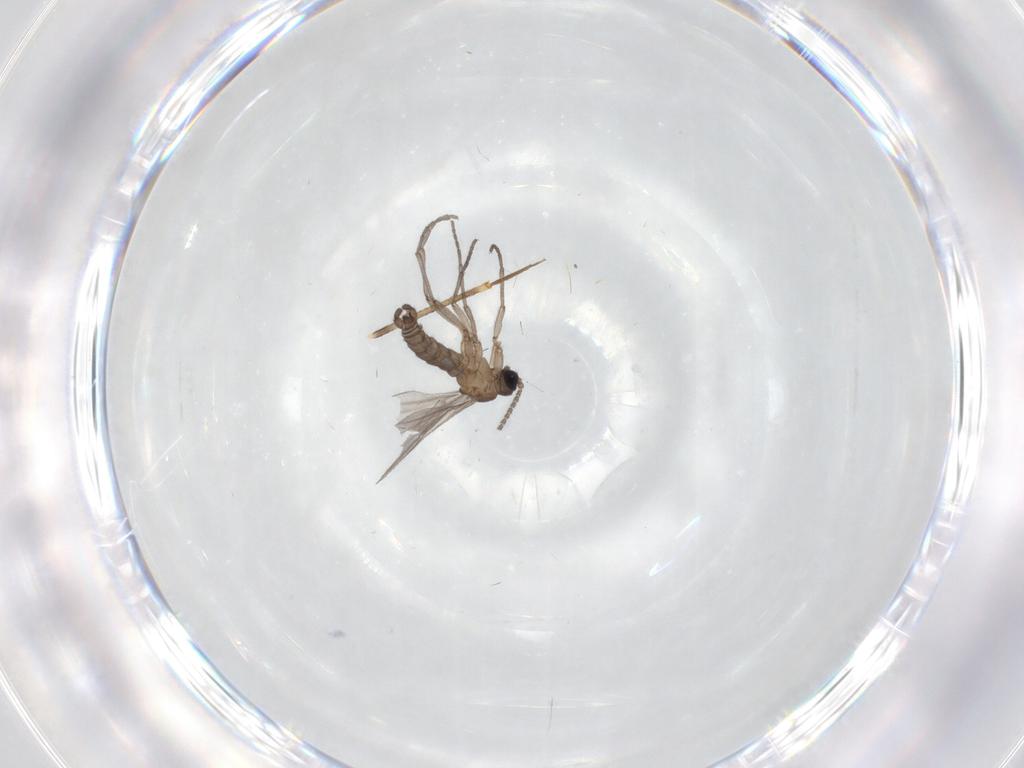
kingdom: Animalia
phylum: Arthropoda
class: Insecta
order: Diptera
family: Sciaridae
